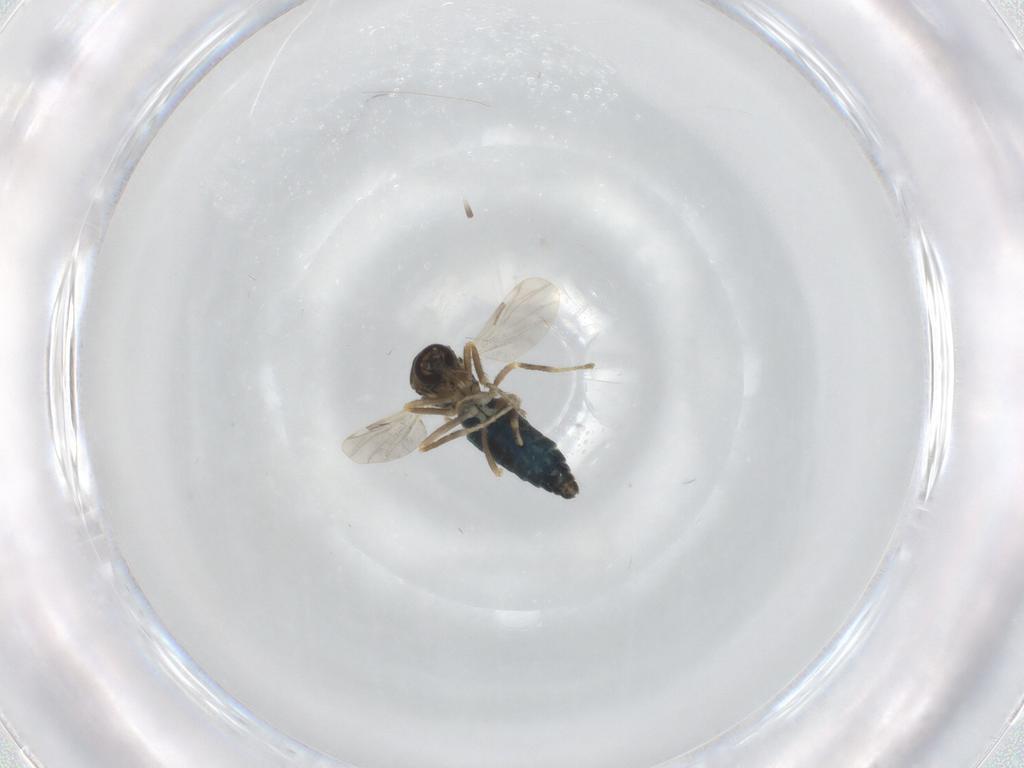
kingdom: Animalia
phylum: Arthropoda
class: Insecta
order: Diptera
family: Ceratopogonidae
